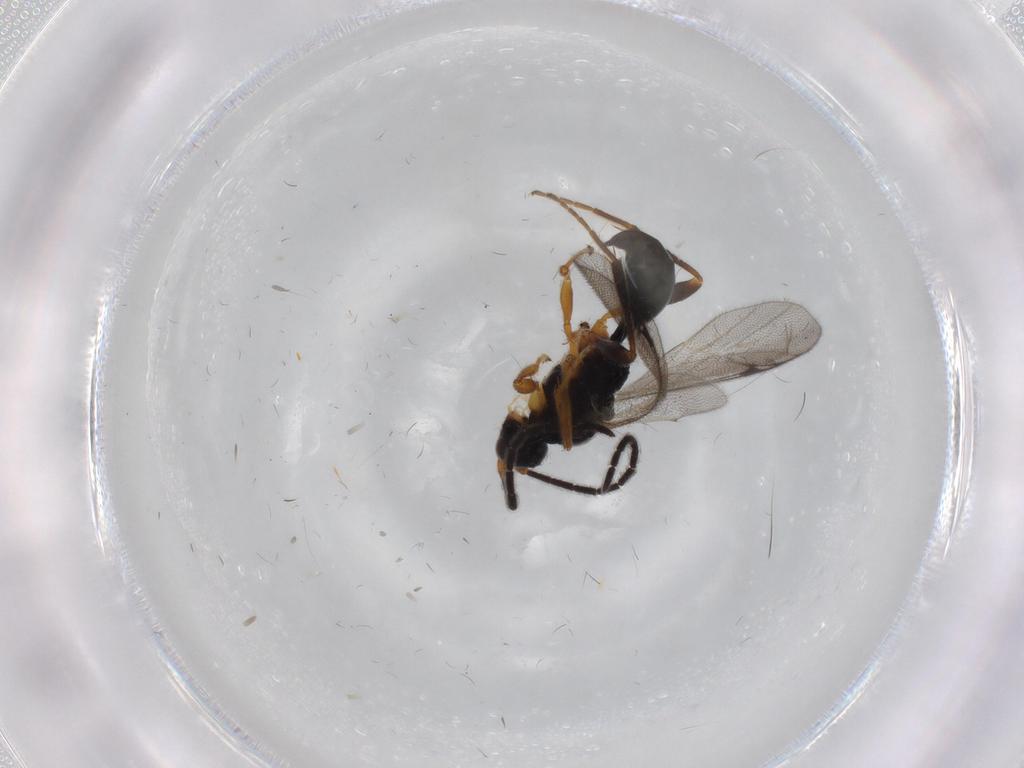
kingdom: Animalia
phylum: Arthropoda
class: Insecta
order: Hymenoptera
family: Proctotrupidae
